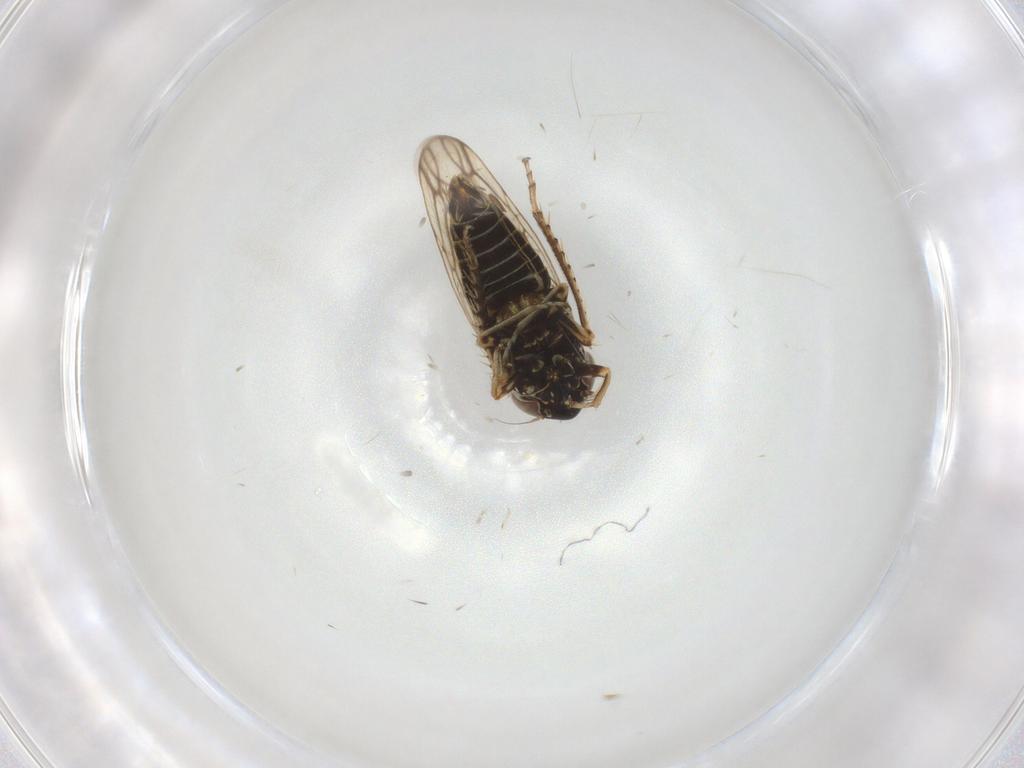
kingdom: Animalia
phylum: Arthropoda
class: Insecta
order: Hemiptera
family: Cicadellidae
